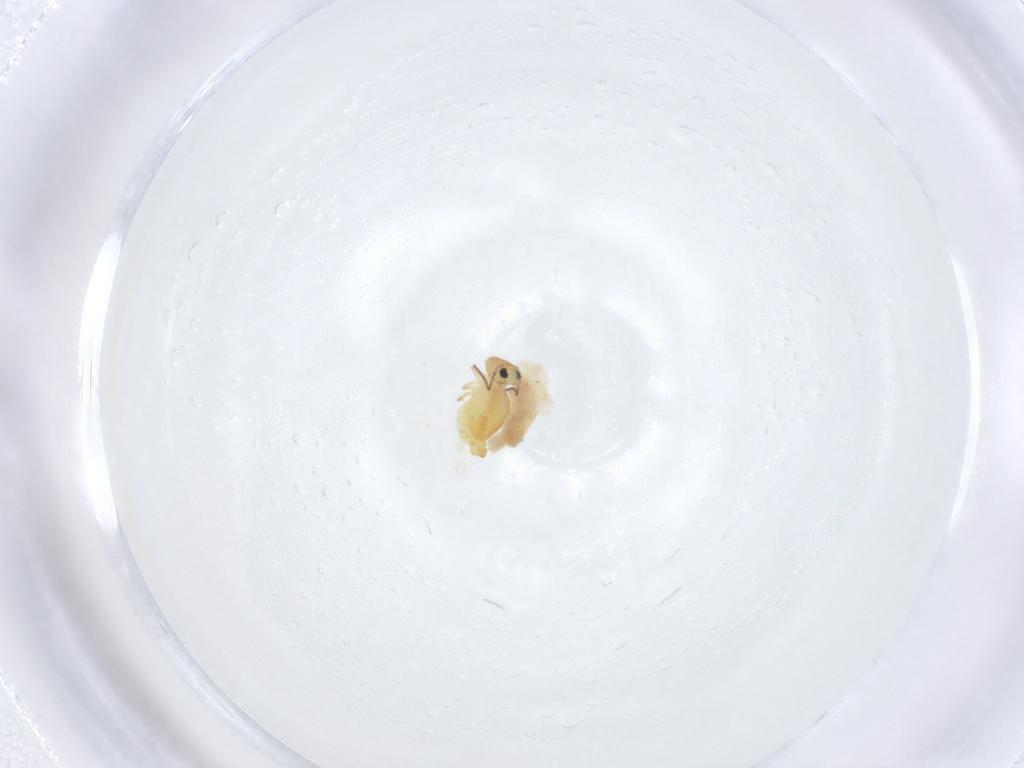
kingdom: Animalia
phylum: Arthropoda
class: Collembola
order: Symphypleona
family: Bourletiellidae
